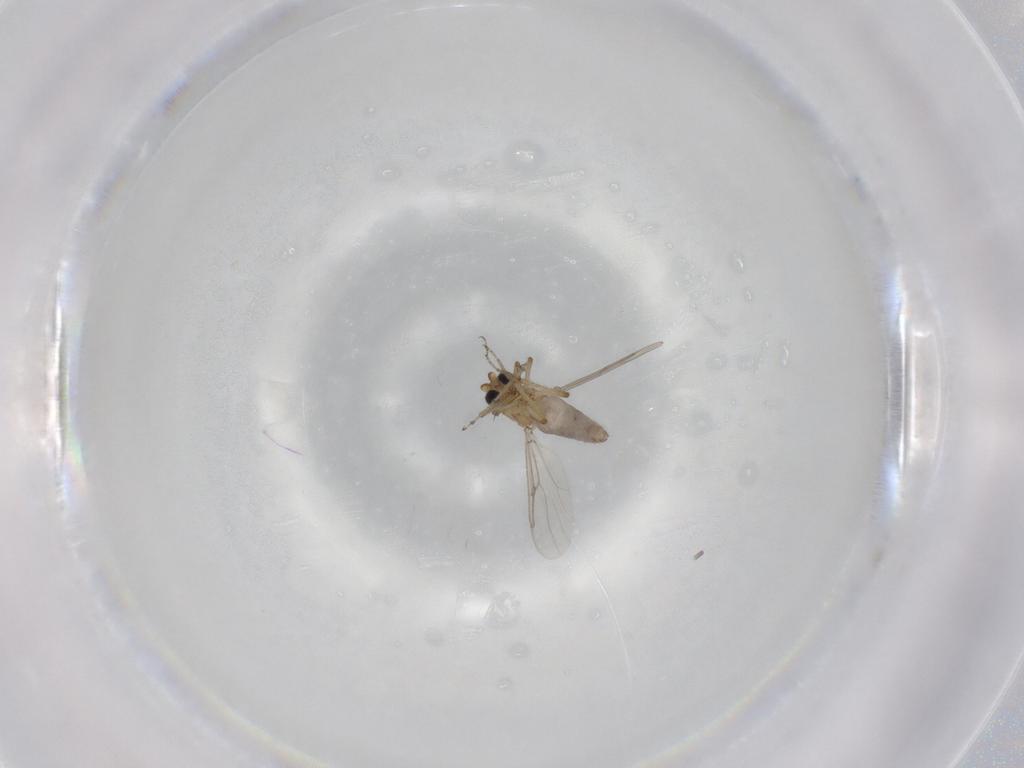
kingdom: Animalia
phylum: Arthropoda
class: Insecta
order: Diptera
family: Ceratopogonidae
